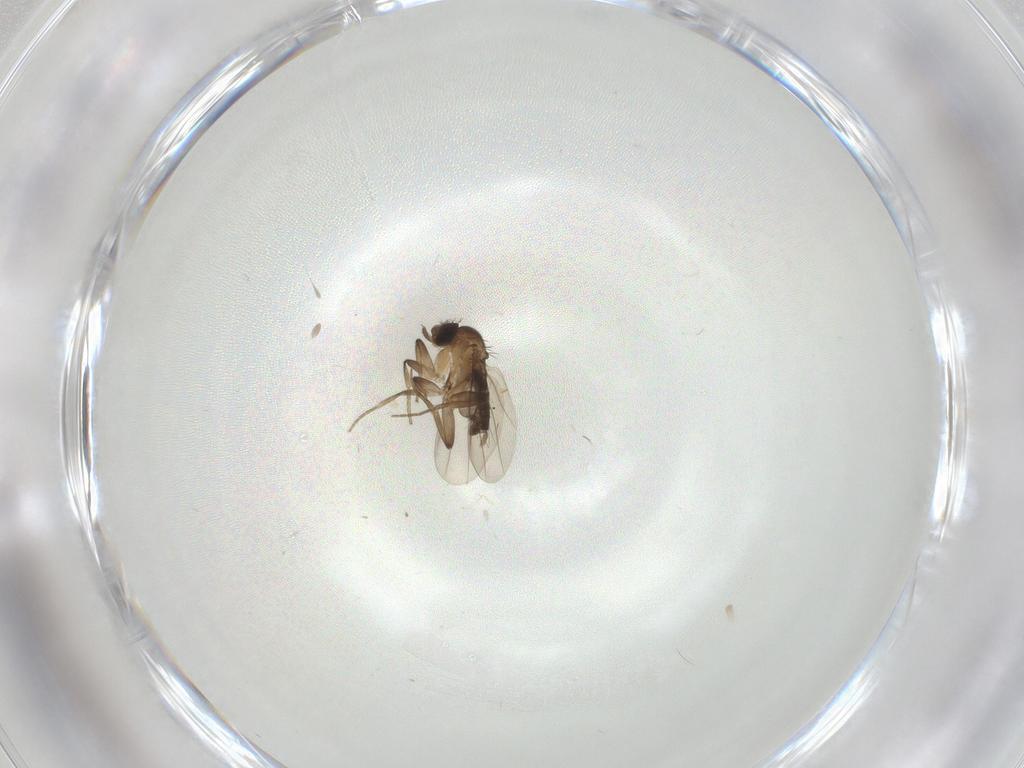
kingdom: Animalia
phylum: Arthropoda
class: Insecta
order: Diptera
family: Phoridae
